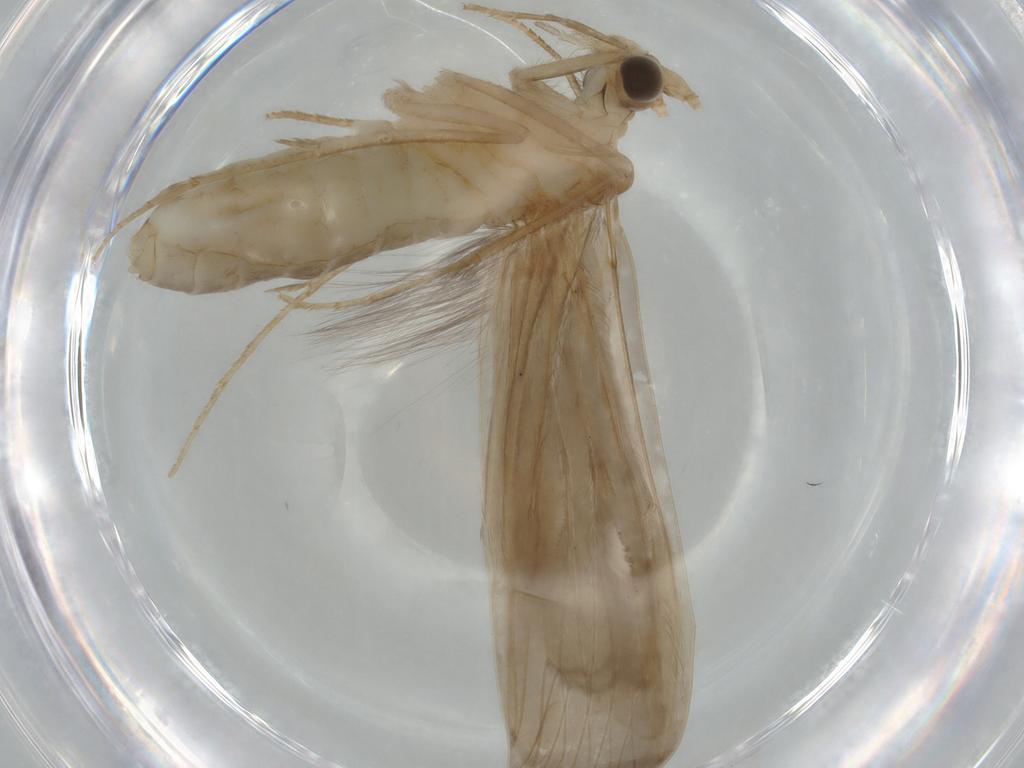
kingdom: Animalia
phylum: Arthropoda
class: Insecta
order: Trichoptera
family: Leptoceridae
